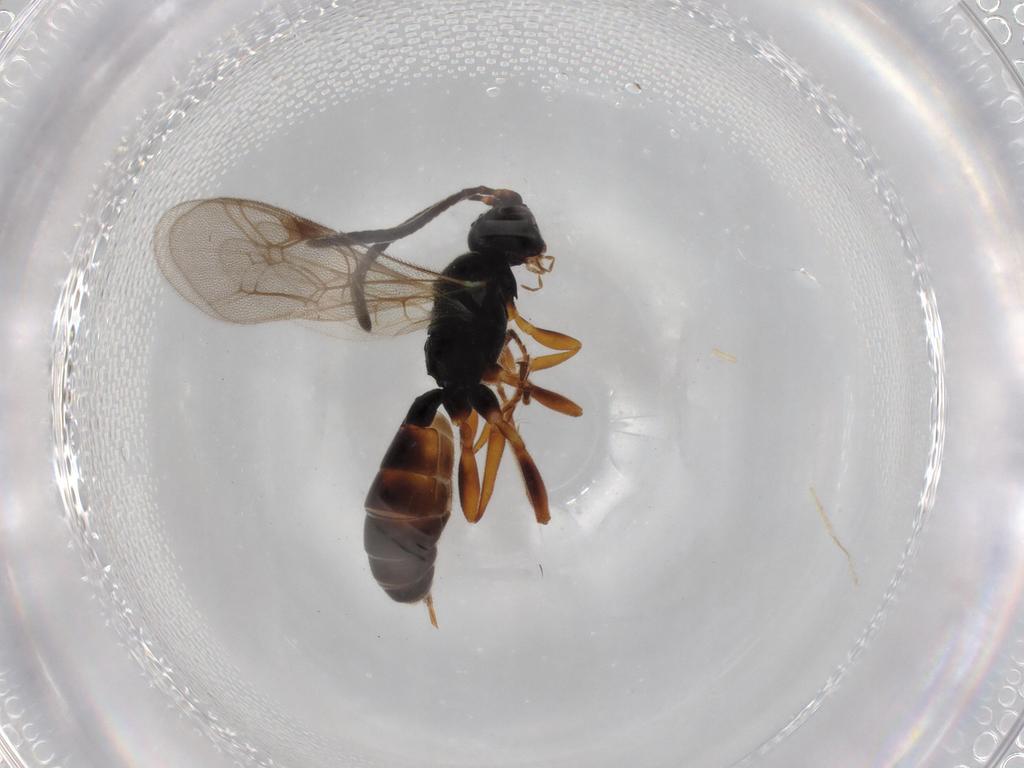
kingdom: Animalia
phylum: Arthropoda
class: Insecta
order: Hymenoptera
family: Ichneumonidae
